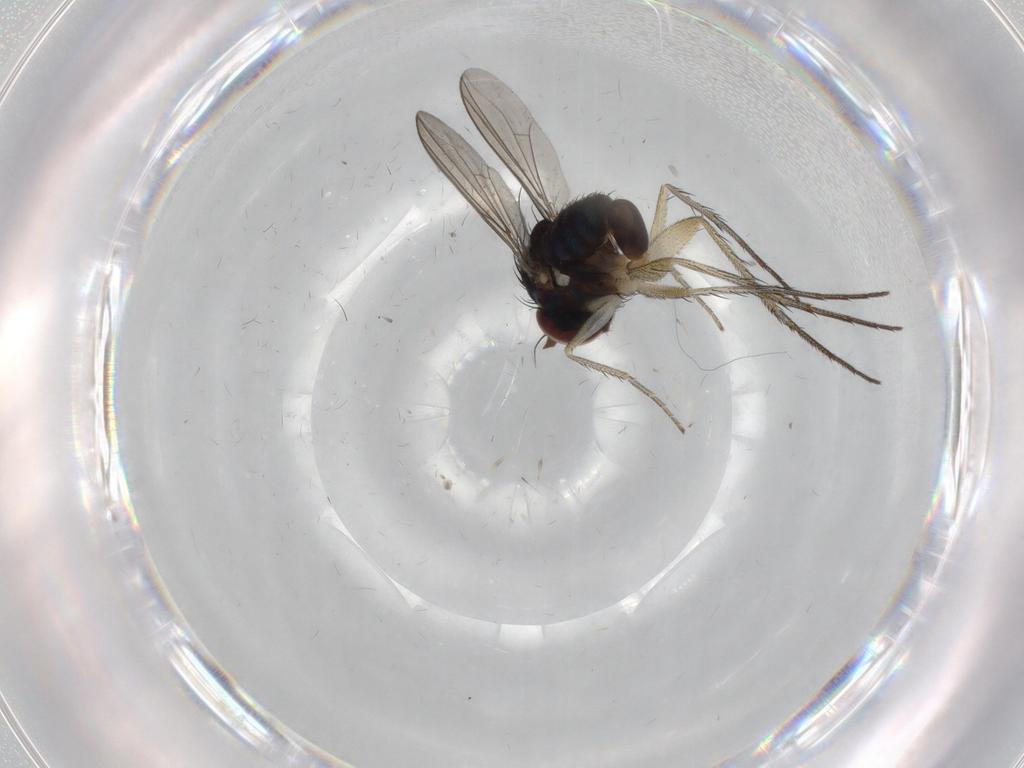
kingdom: Animalia
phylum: Arthropoda
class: Insecta
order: Diptera
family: Dolichopodidae
